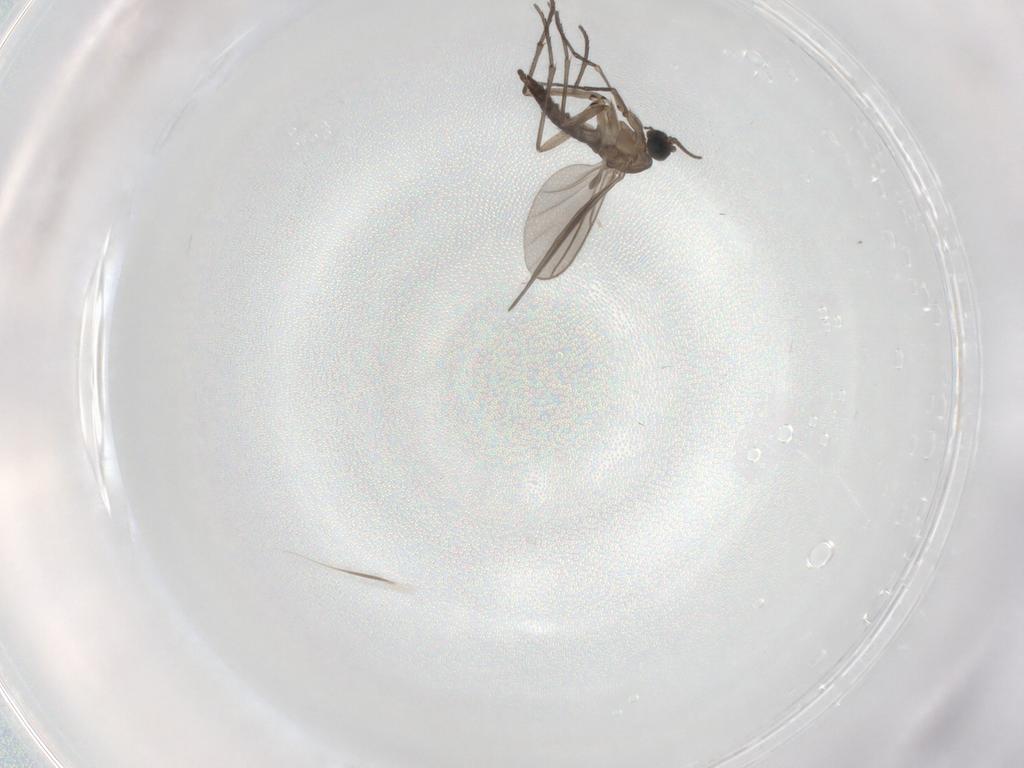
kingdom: Animalia
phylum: Arthropoda
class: Insecta
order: Diptera
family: Sciaridae
